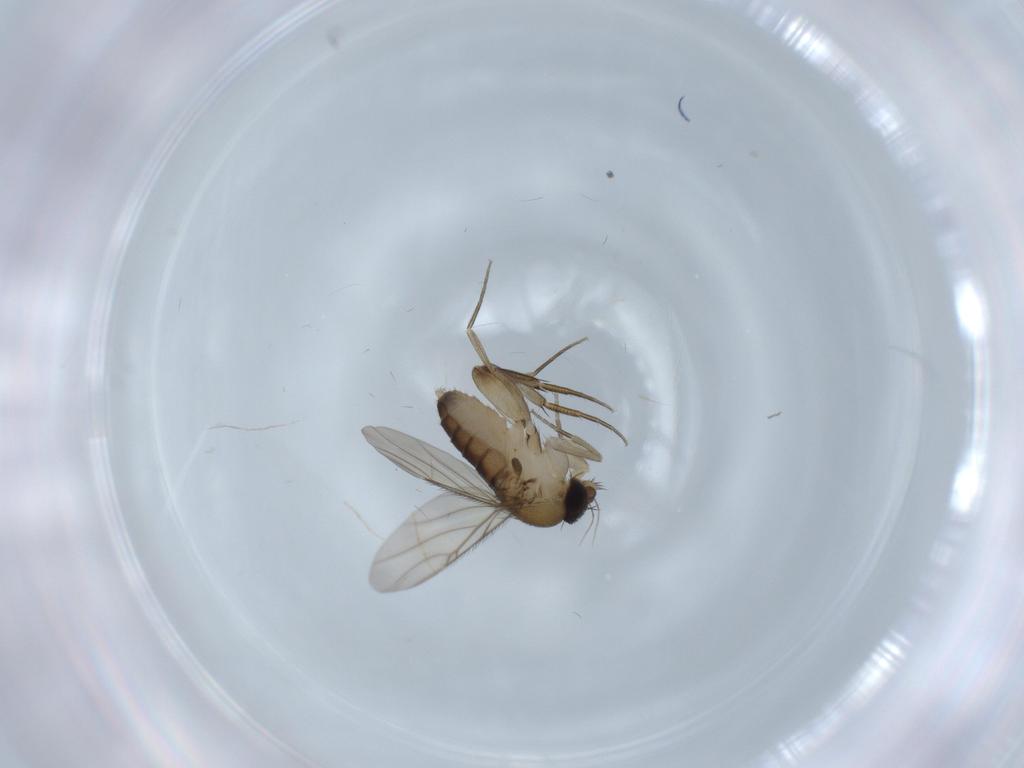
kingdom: Animalia
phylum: Arthropoda
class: Insecta
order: Diptera
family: Phoridae
